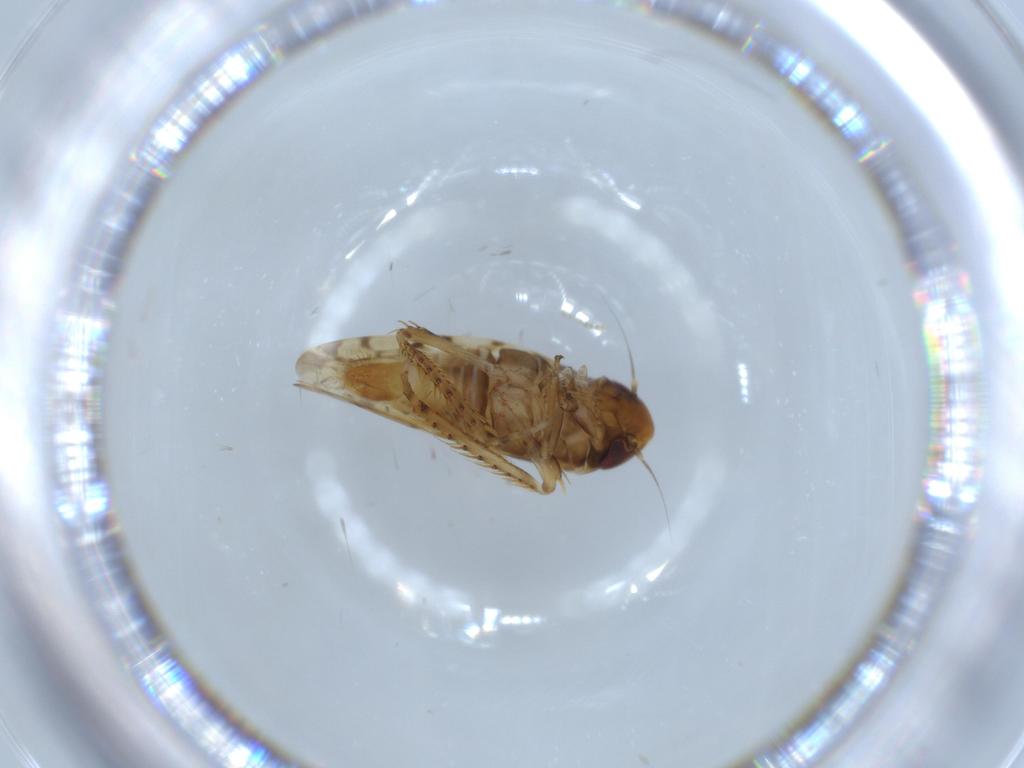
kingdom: Animalia
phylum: Arthropoda
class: Insecta
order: Hemiptera
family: Cicadellidae
